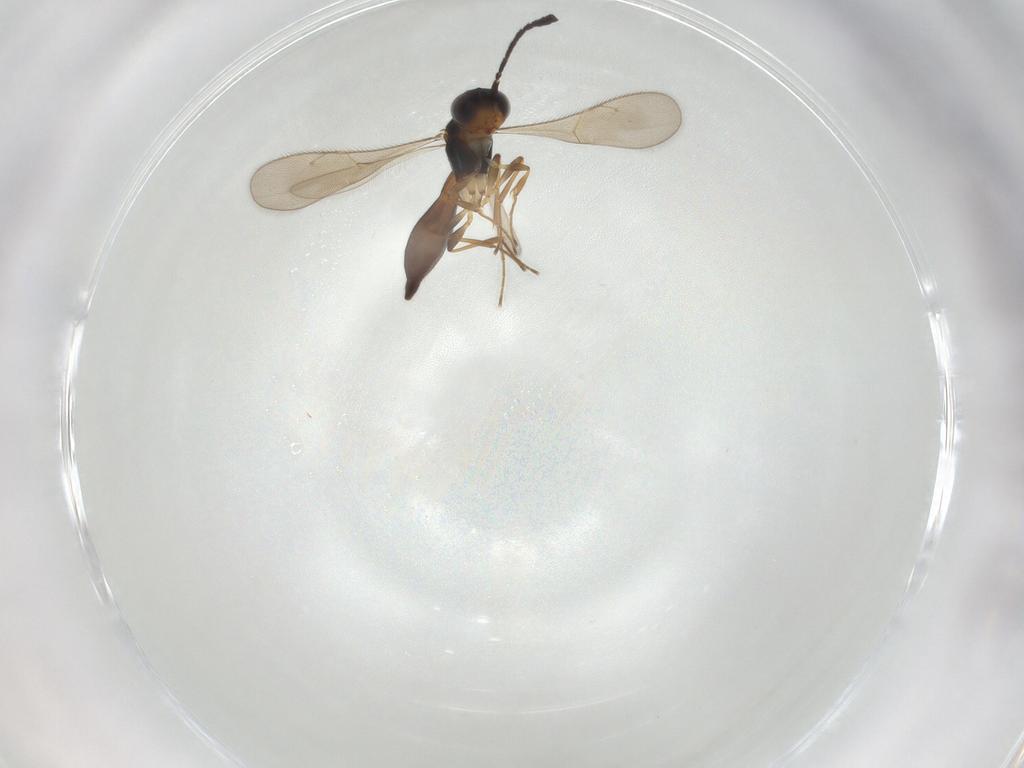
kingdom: Animalia
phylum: Arthropoda
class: Insecta
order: Hymenoptera
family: Scelionidae
